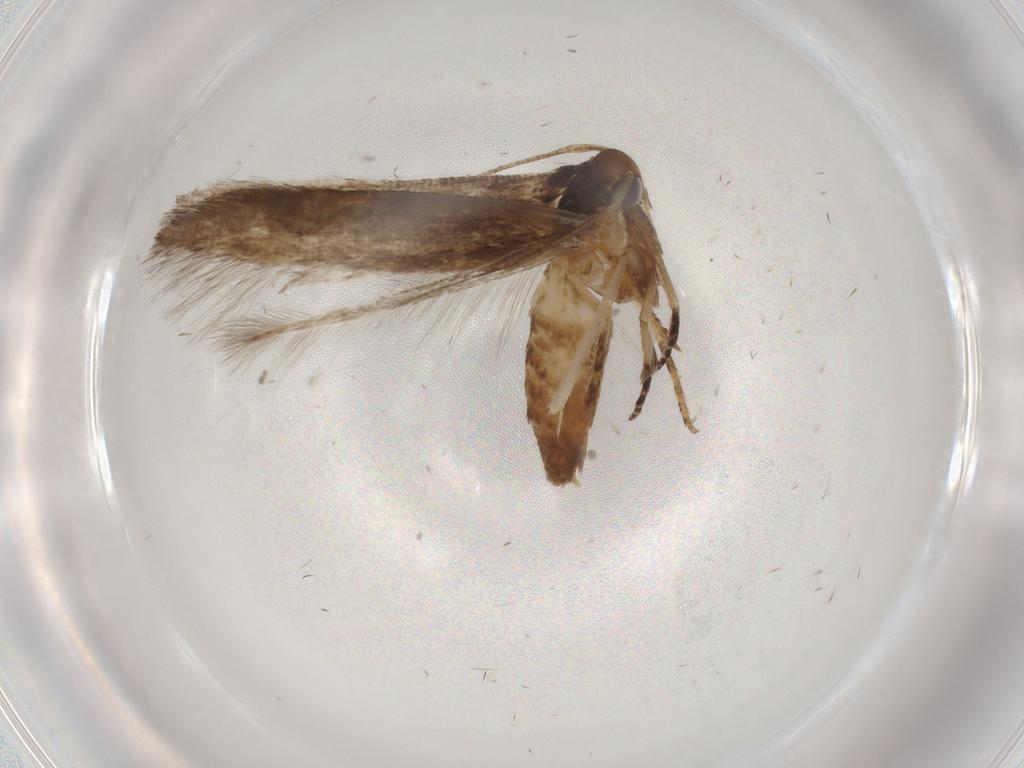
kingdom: Animalia
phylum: Arthropoda
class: Insecta
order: Lepidoptera
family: Cosmopterigidae
